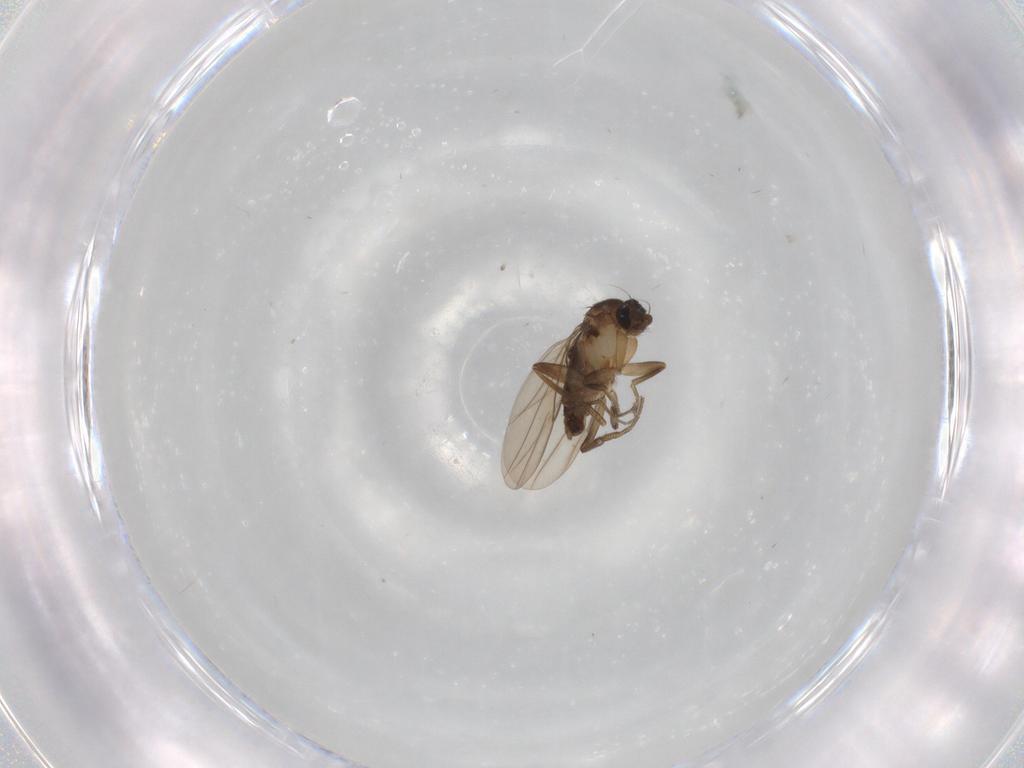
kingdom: Animalia
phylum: Arthropoda
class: Insecta
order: Diptera
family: Phoridae
